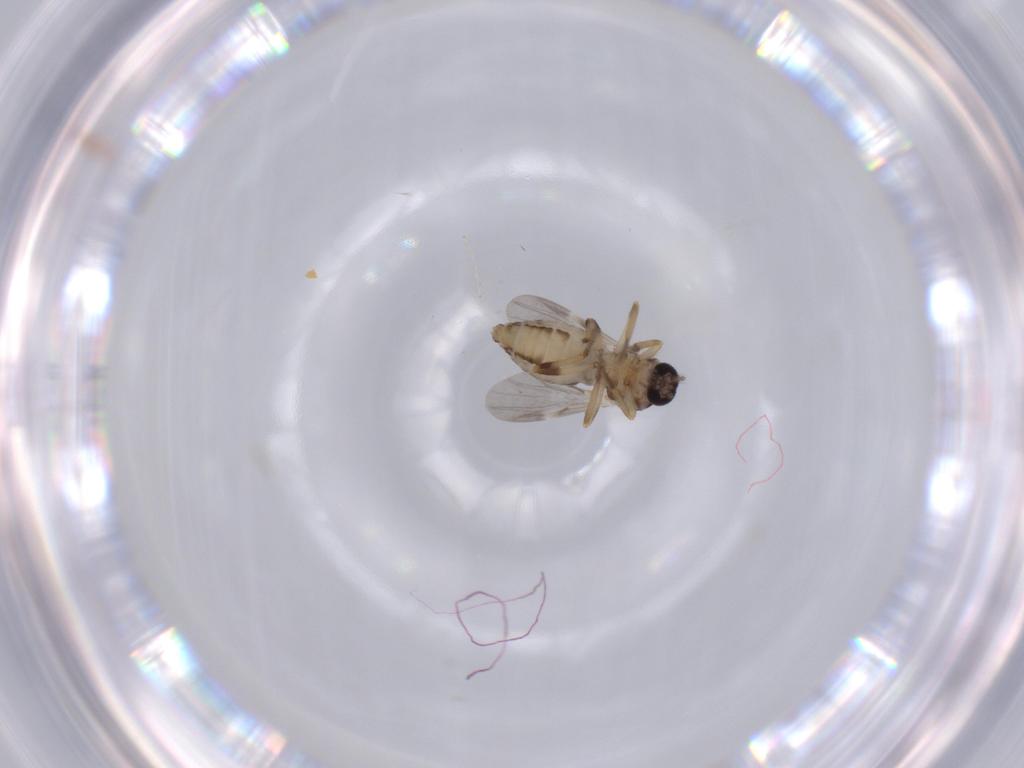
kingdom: Animalia
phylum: Arthropoda
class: Insecta
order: Diptera
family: Ceratopogonidae
